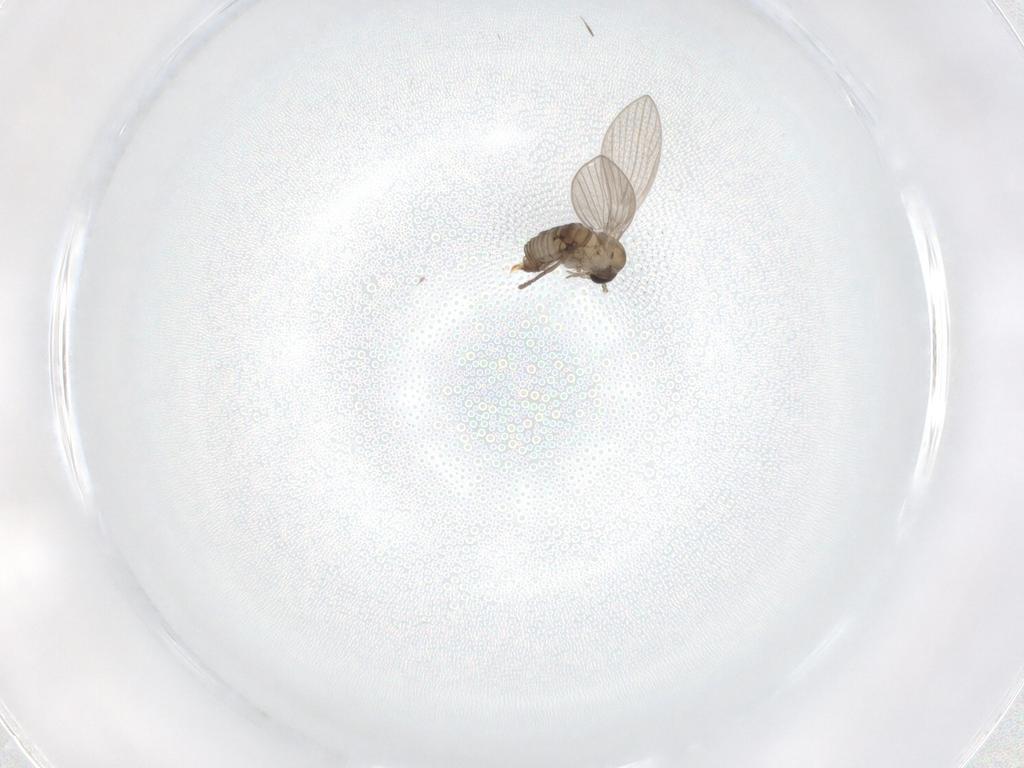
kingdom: Animalia
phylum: Arthropoda
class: Insecta
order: Diptera
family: Psychodidae
